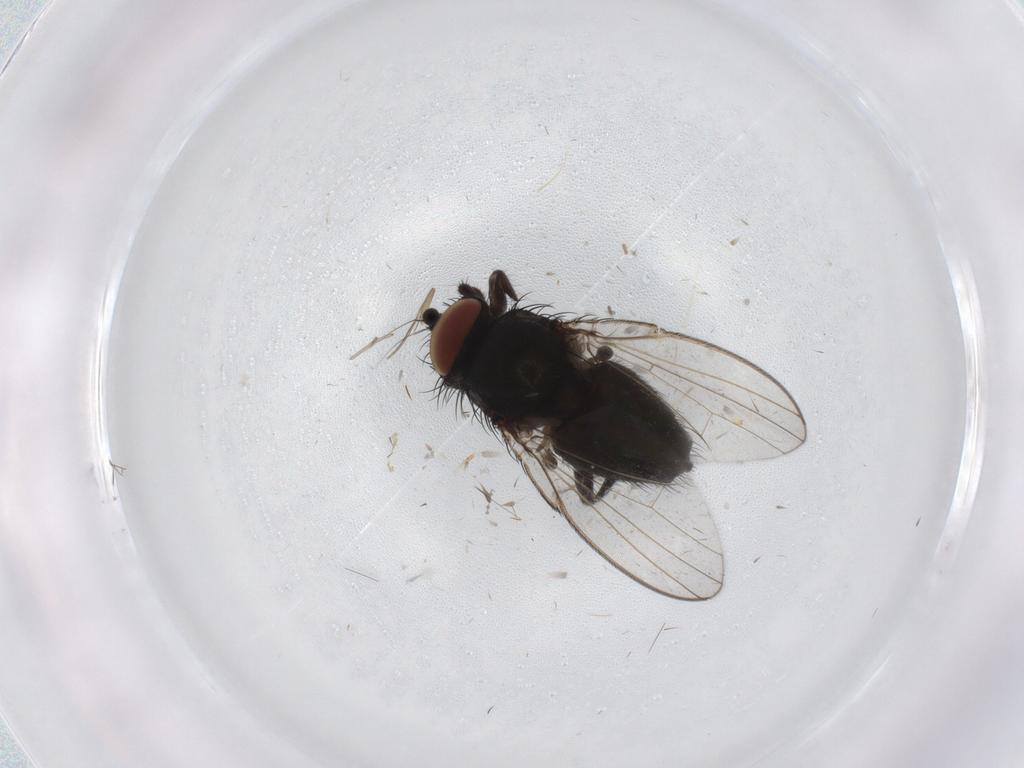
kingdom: Animalia
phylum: Arthropoda
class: Insecta
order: Diptera
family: Milichiidae
